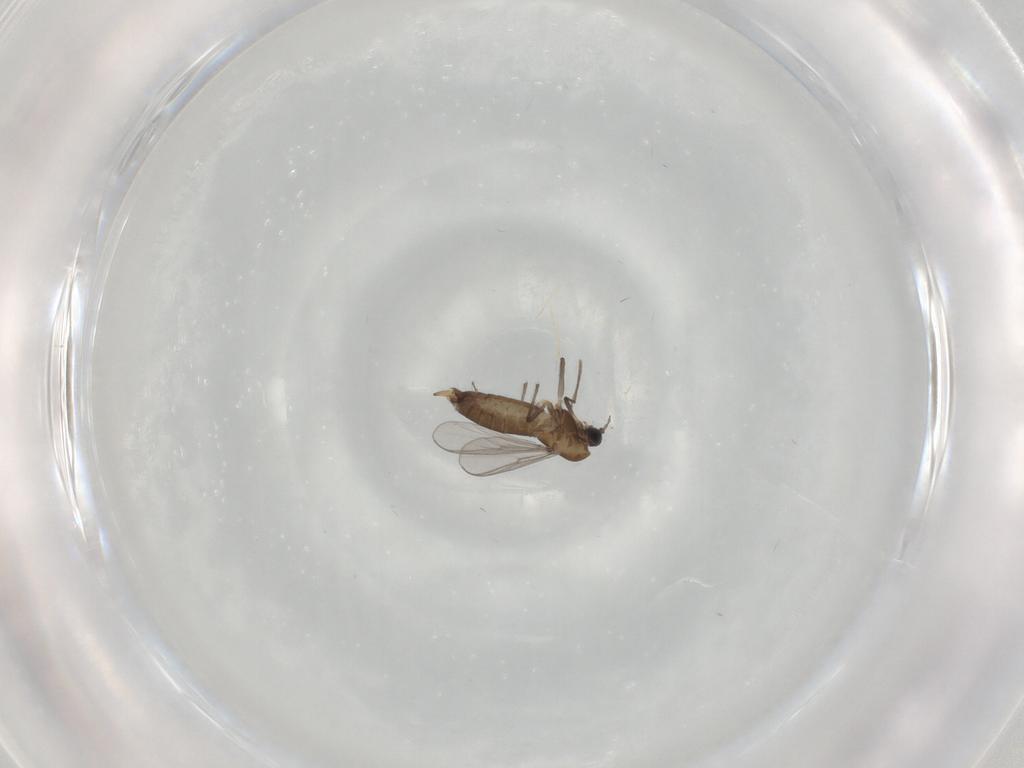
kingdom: Animalia
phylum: Arthropoda
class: Insecta
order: Diptera
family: Chironomidae
